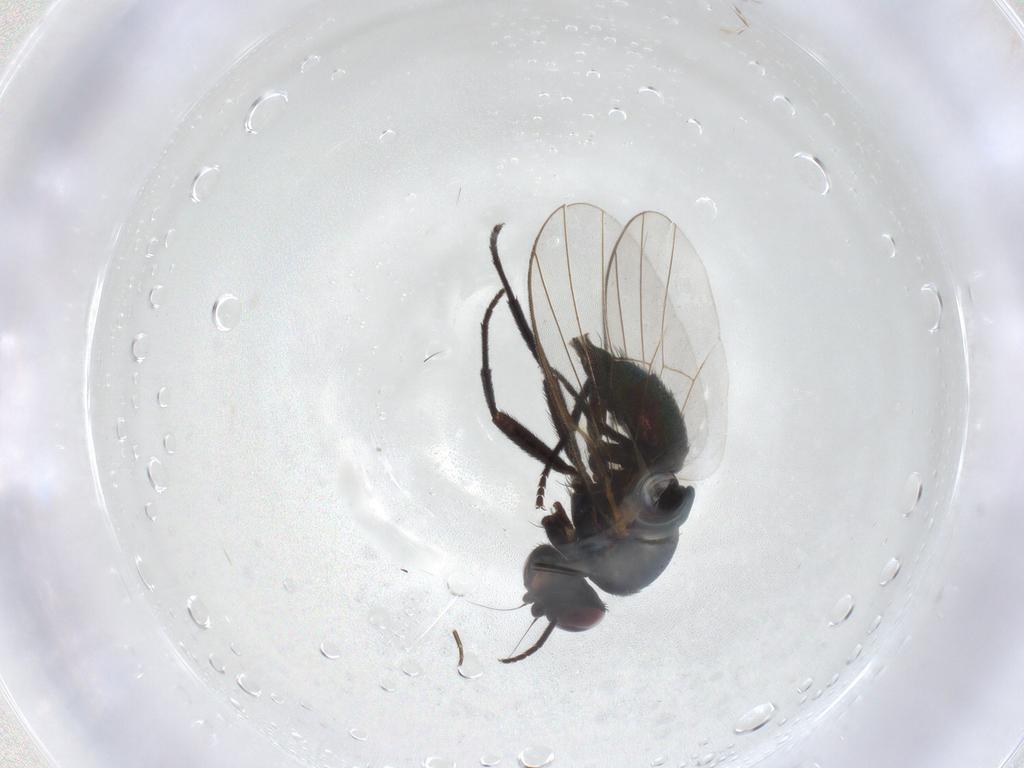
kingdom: Animalia
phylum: Arthropoda
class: Insecta
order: Diptera
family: Agromyzidae
